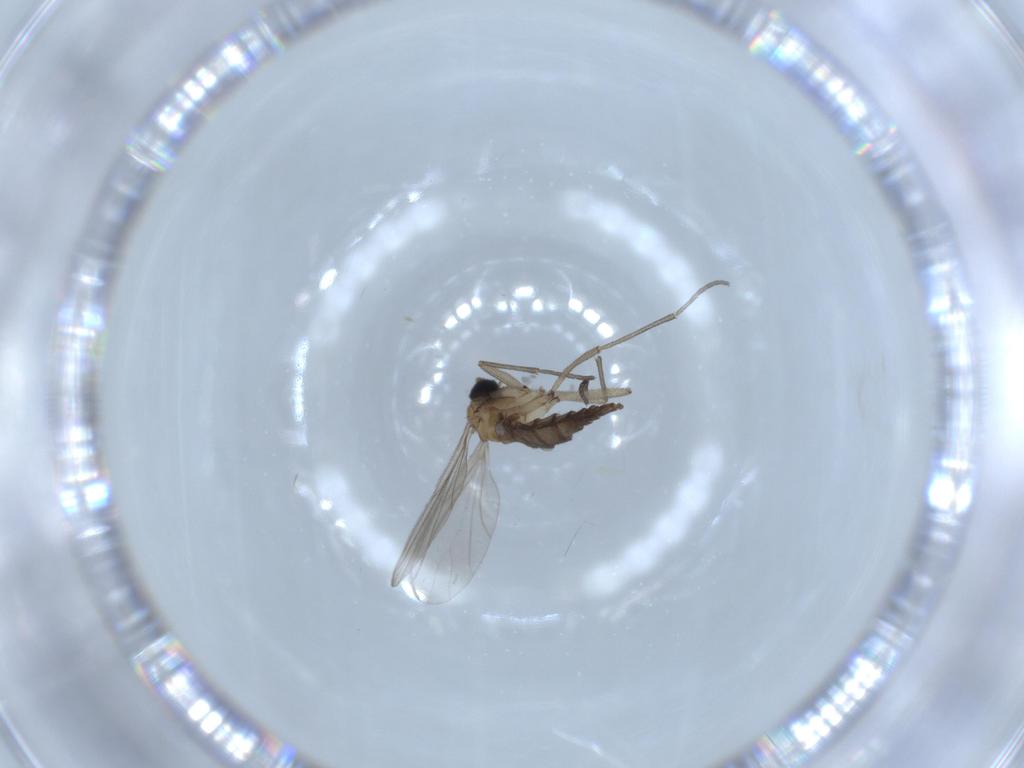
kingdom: Animalia
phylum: Arthropoda
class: Insecta
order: Diptera
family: Sciaridae
